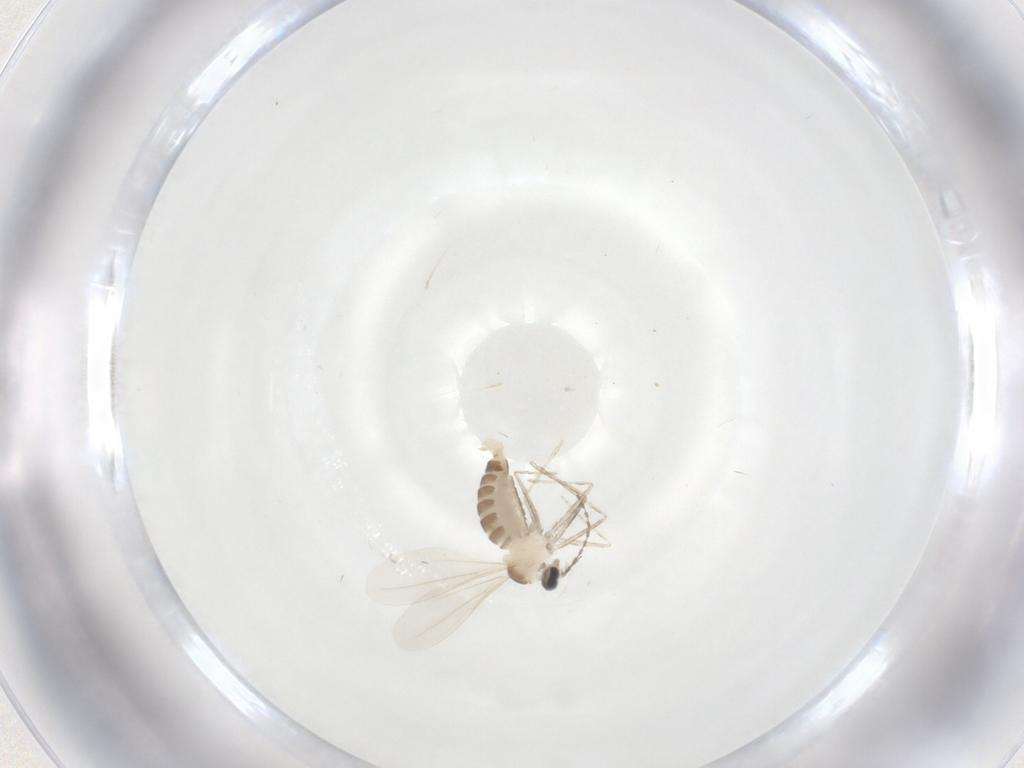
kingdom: Animalia
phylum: Arthropoda
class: Insecta
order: Diptera
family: Cecidomyiidae
